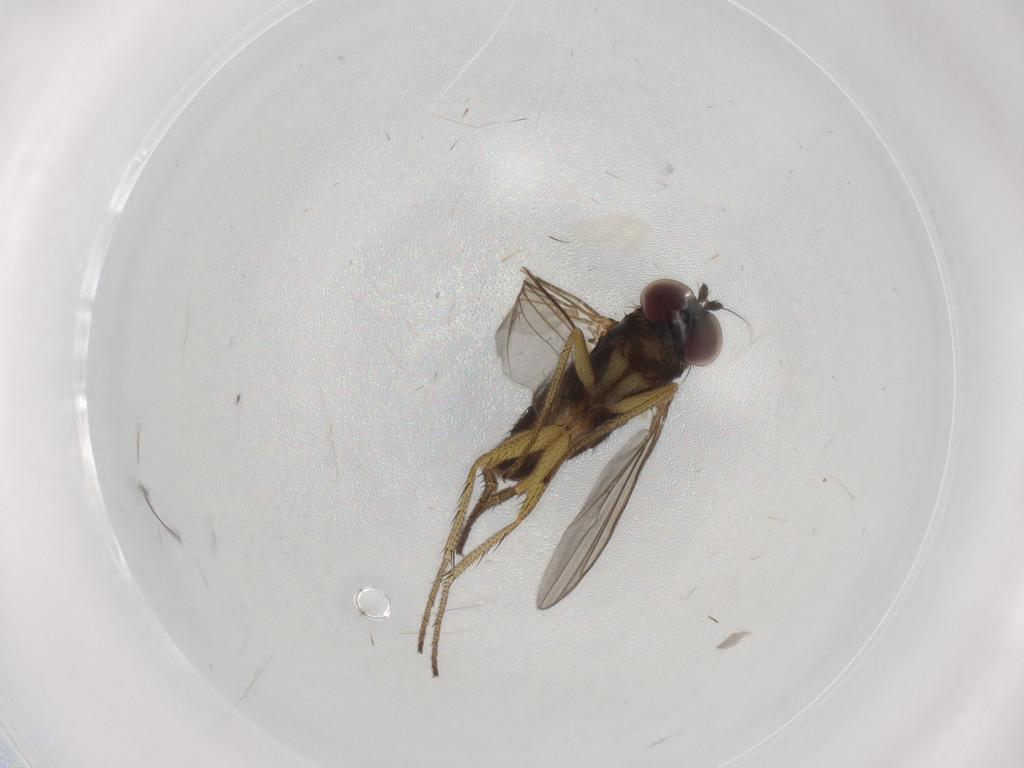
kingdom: Animalia
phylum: Arthropoda
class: Insecta
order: Diptera
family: Chironomidae
